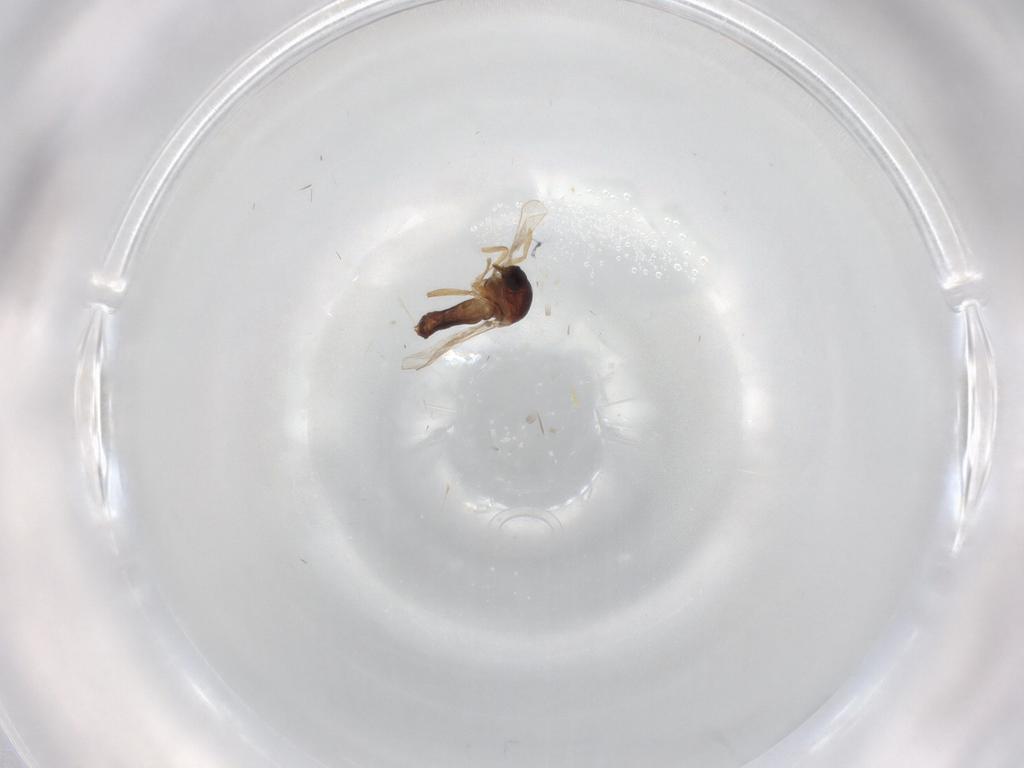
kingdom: Animalia
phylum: Arthropoda
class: Insecta
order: Diptera
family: Ceratopogonidae
